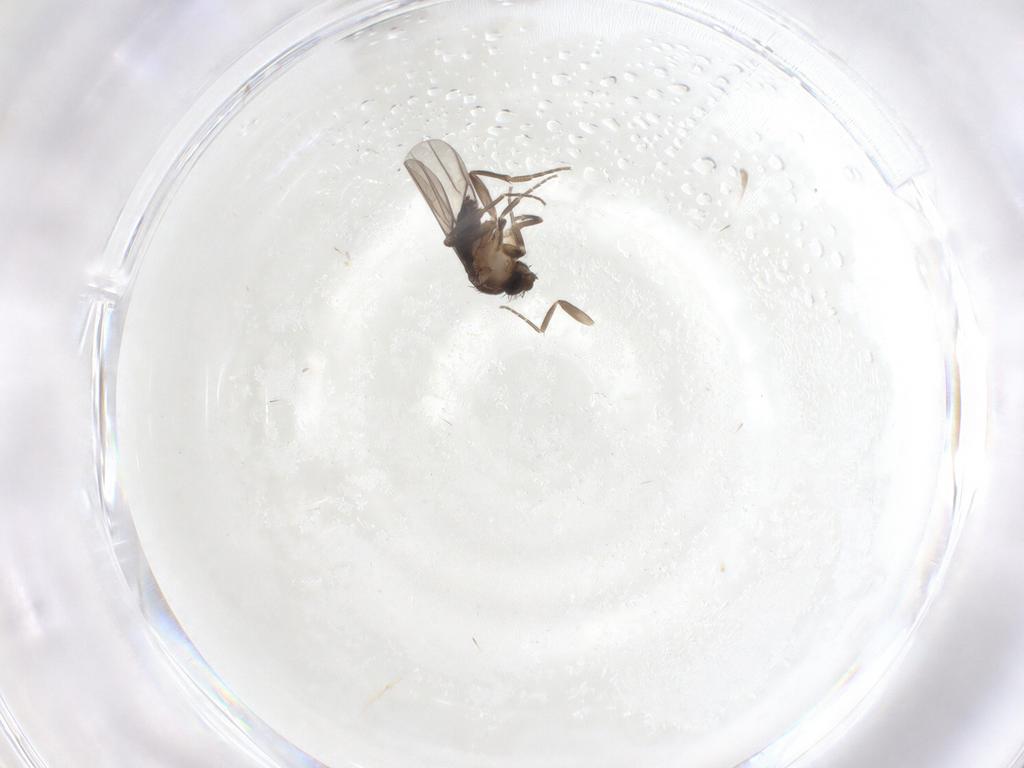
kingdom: Animalia
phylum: Arthropoda
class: Insecta
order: Diptera
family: Phoridae
